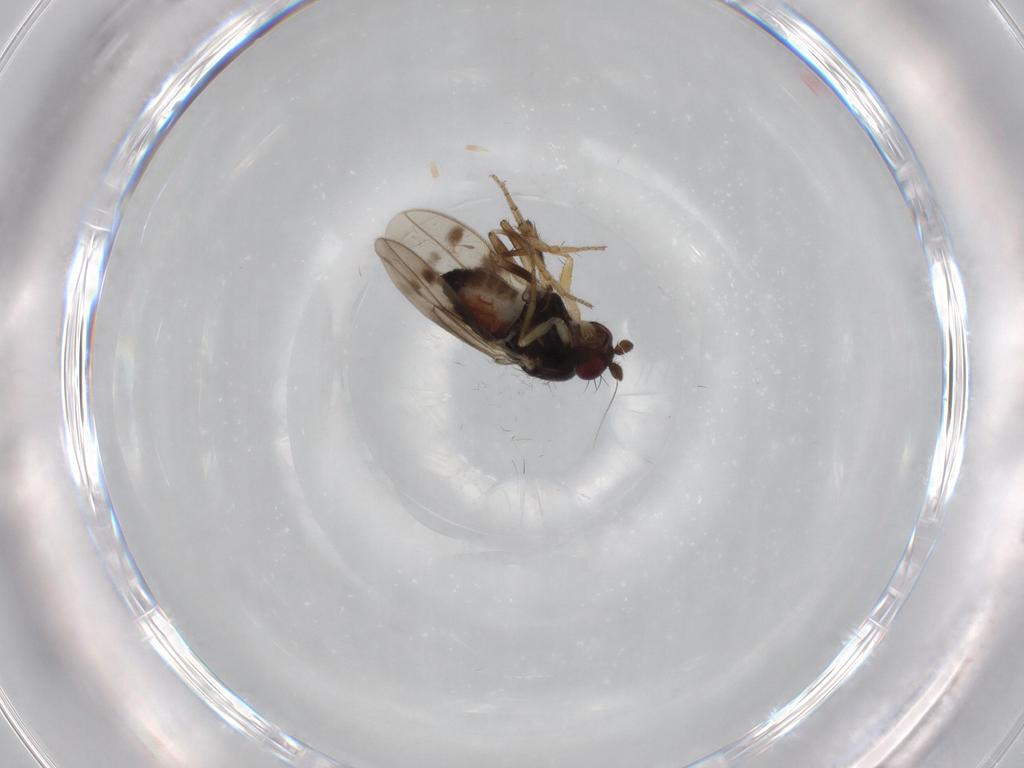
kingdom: Animalia
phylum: Arthropoda
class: Insecta
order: Diptera
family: Sphaeroceridae
